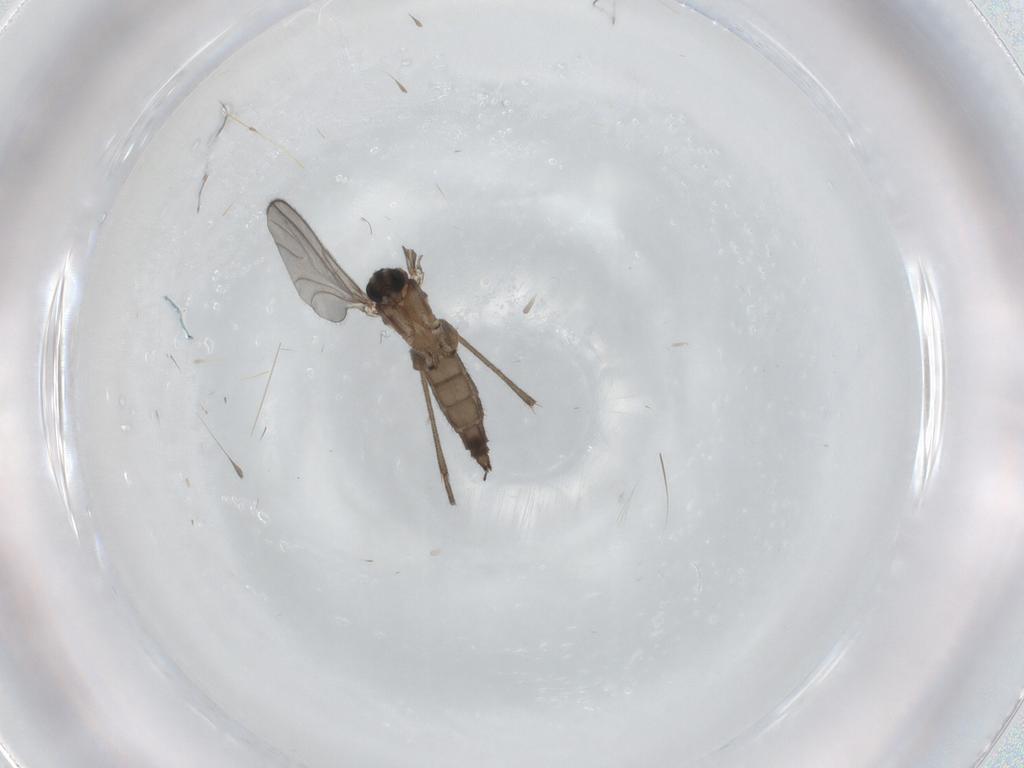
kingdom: Animalia
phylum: Arthropoda
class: Insecta
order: Diptera
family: Sciaridae
